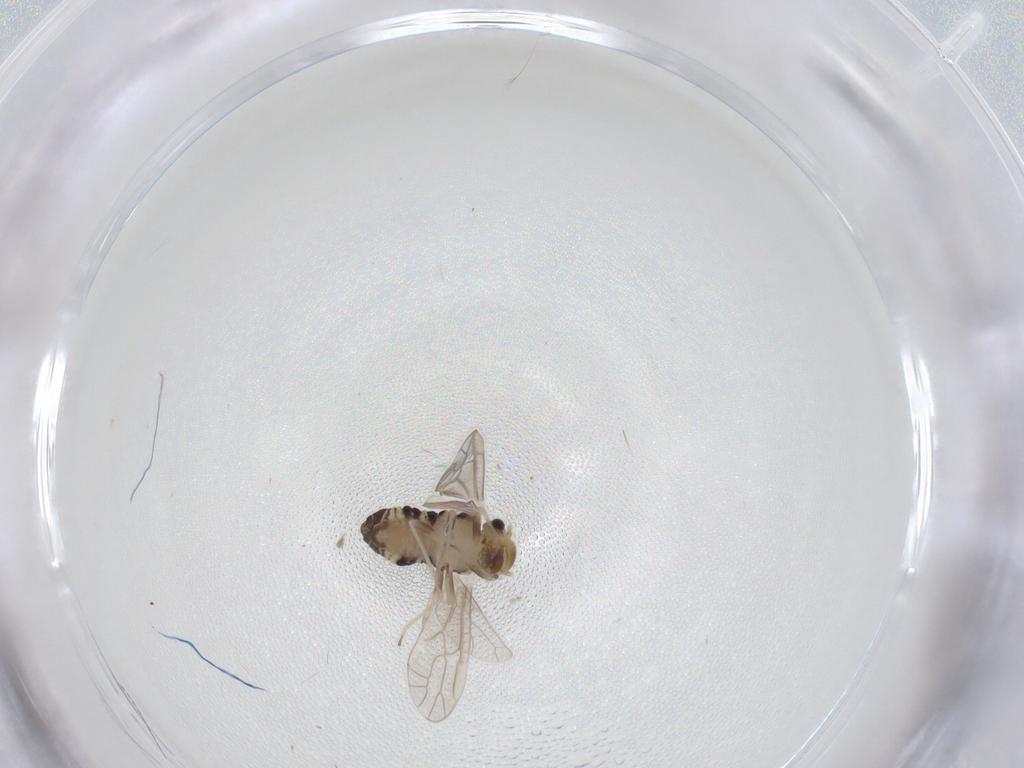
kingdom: Animalia
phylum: Arthropoda
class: Insecta
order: Psocodea
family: Ectopsocidae
